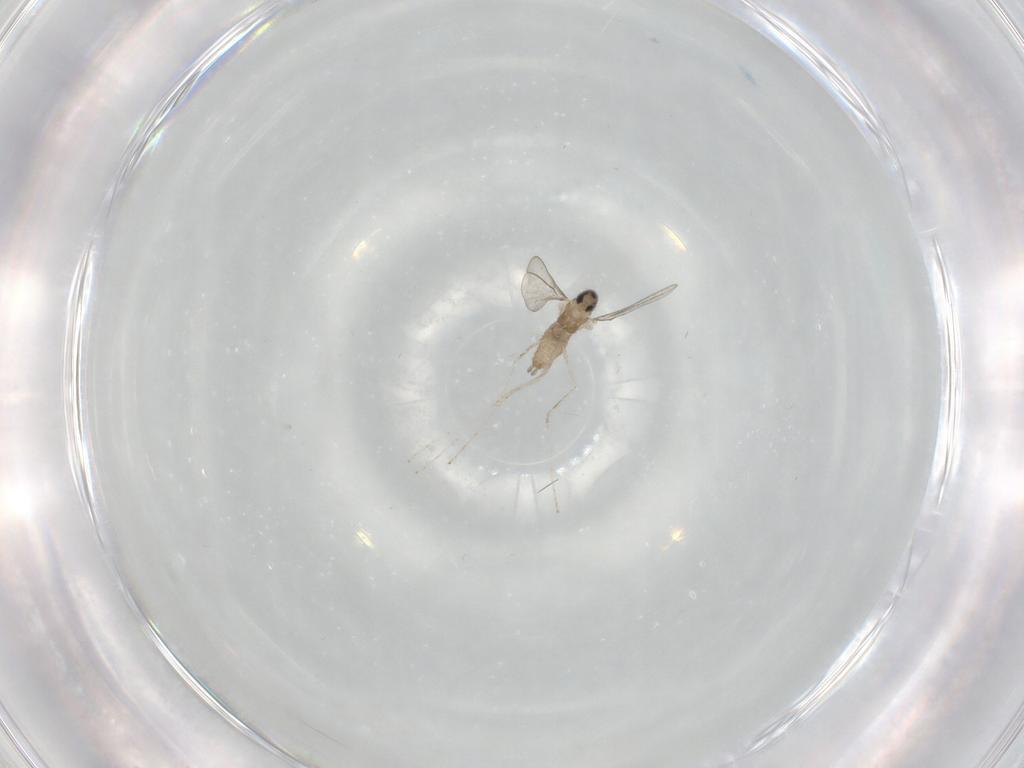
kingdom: Animalia
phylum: Arthropoda
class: Insecta
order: Diptera
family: Cecidomyiidae
